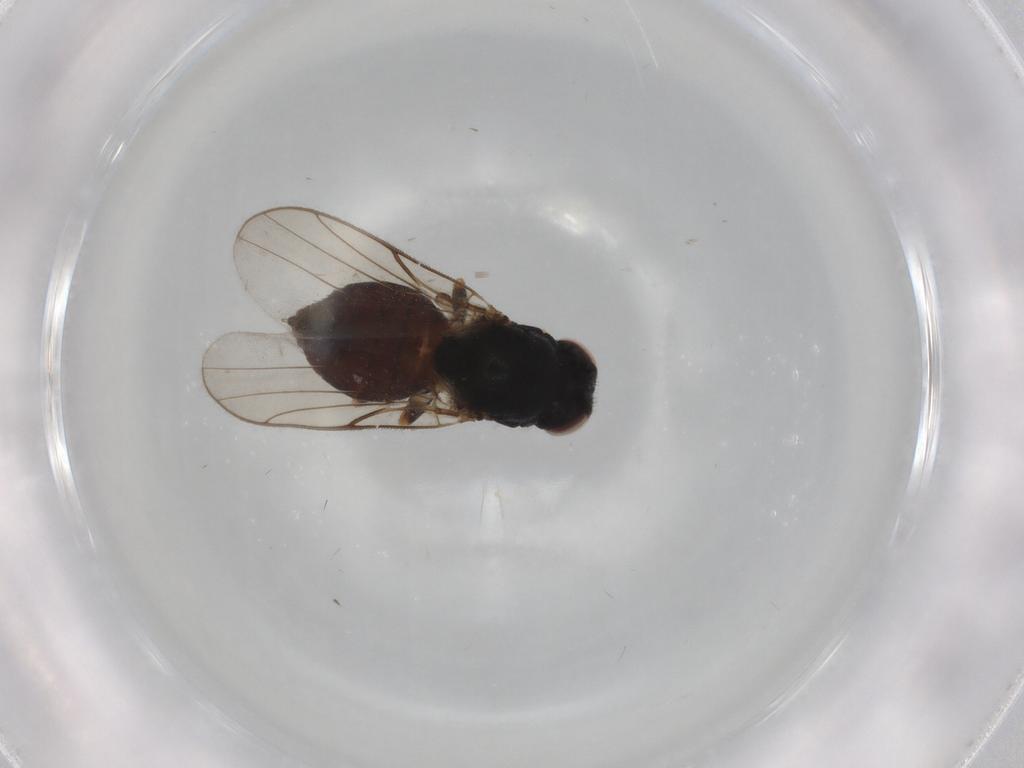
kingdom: Animalia
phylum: Arthropoda
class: Insecta
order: Diptera
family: Chloropidae
